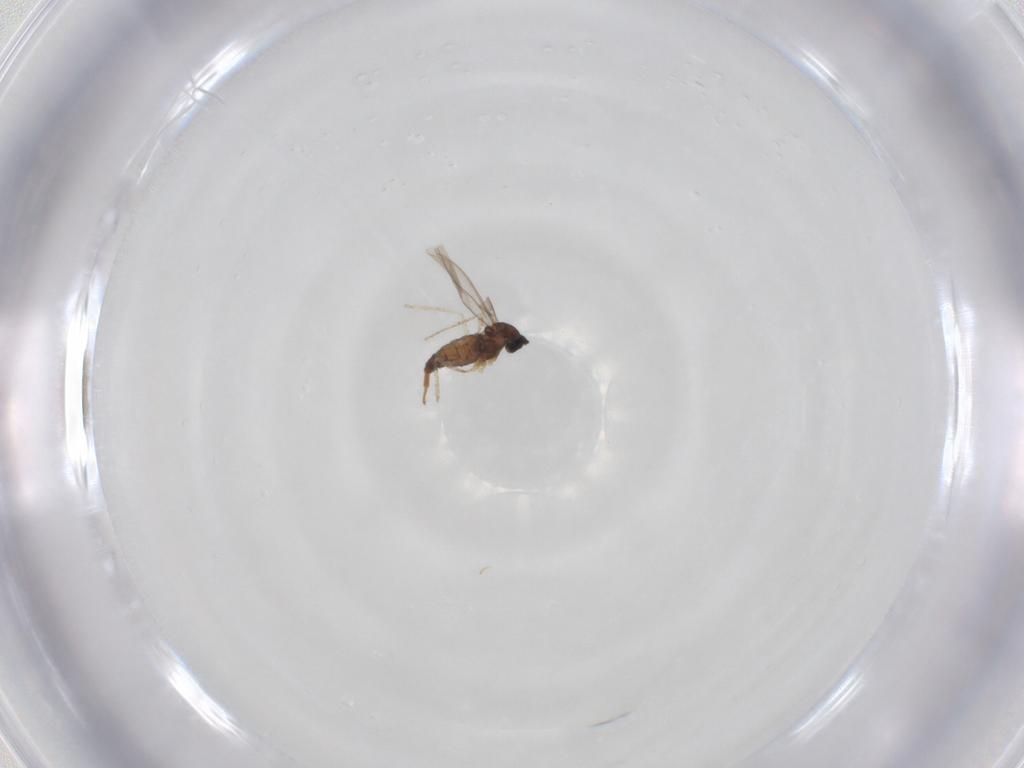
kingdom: Animalia
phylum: Arthropoda
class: Insecta
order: Diptera
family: Cecidomyiidae
